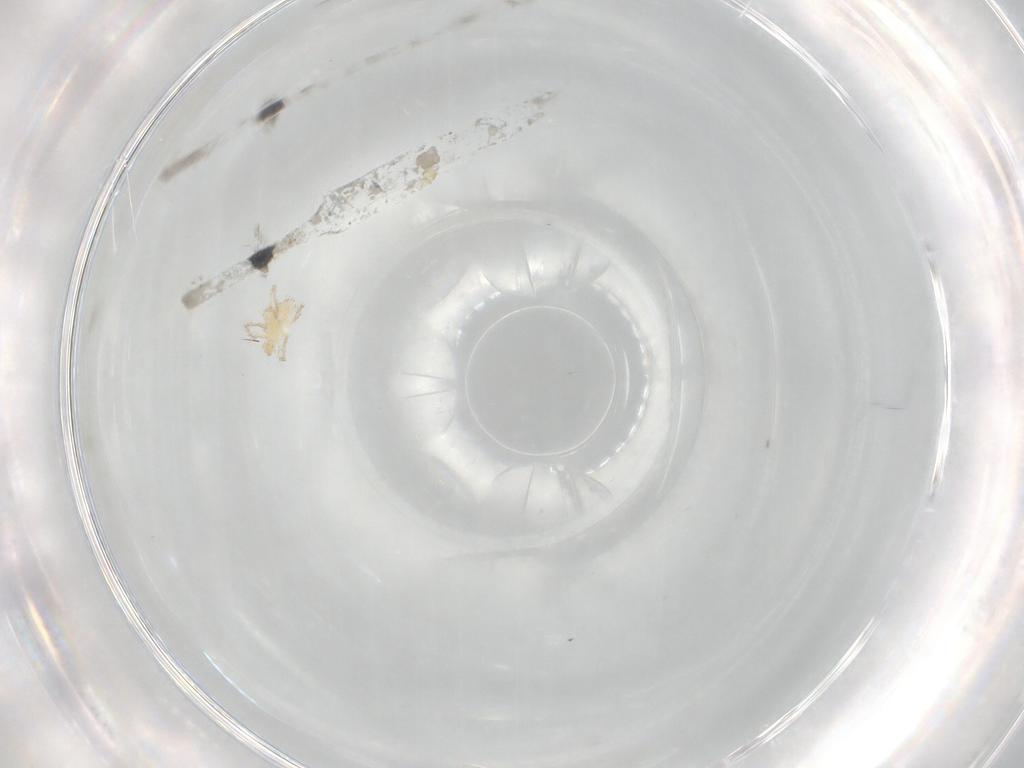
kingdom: Animalia
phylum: Arthropoda
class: Arachnida
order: Trombidiformes
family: Erythraeidae
